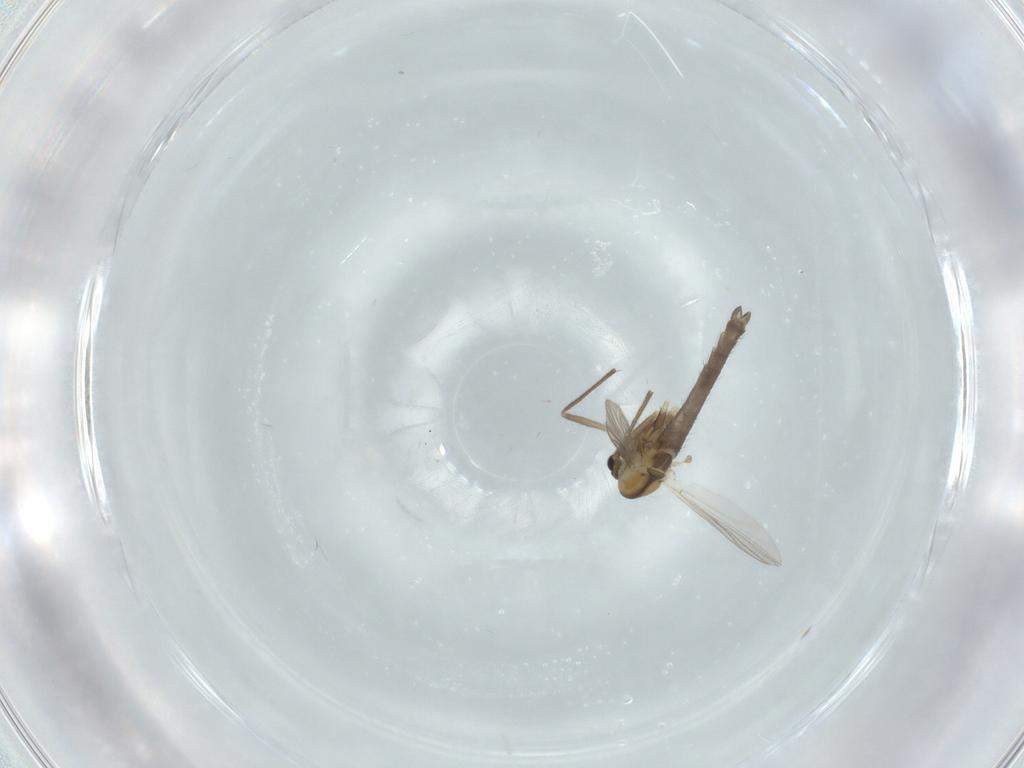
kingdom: Animalia
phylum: Arthropoda
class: Insecta
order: Diptera
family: Chironomidae
